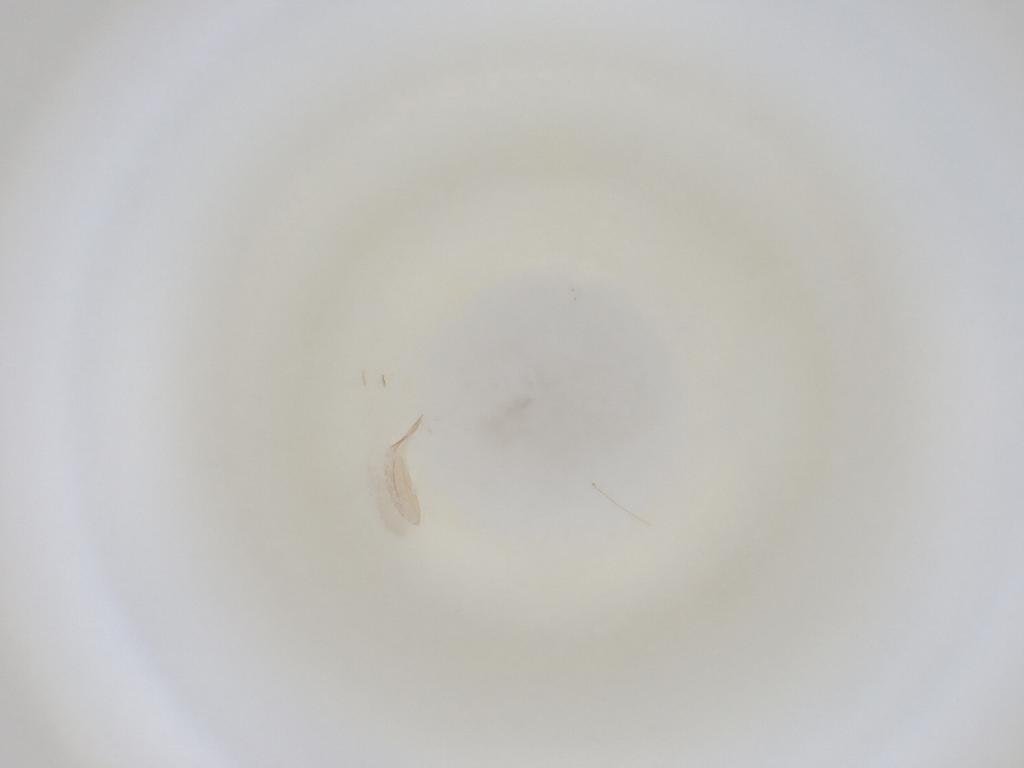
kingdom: Animalia
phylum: Arthropoda
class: Insecta
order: Diptera
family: Cecidomyiidae
